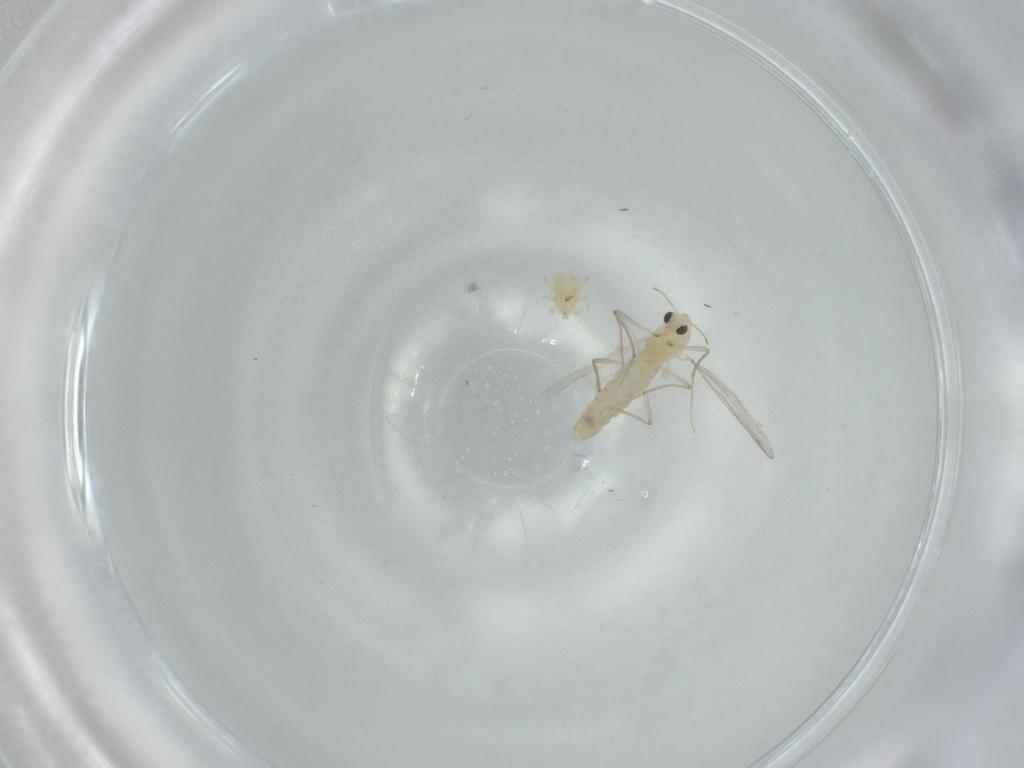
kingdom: Animalia
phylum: Arthropoda
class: Insecta
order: Diptera
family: Chironomidae
